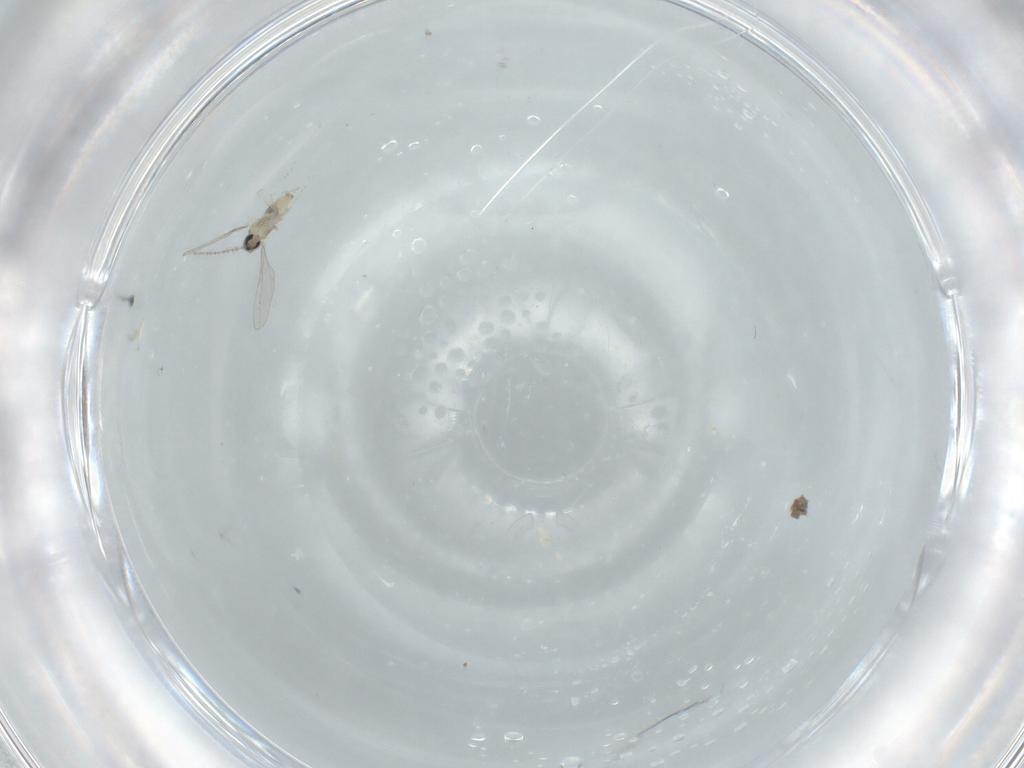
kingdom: Animalia
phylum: Arthropoda
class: Insecta
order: Diptera
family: Cecidomyiidae
